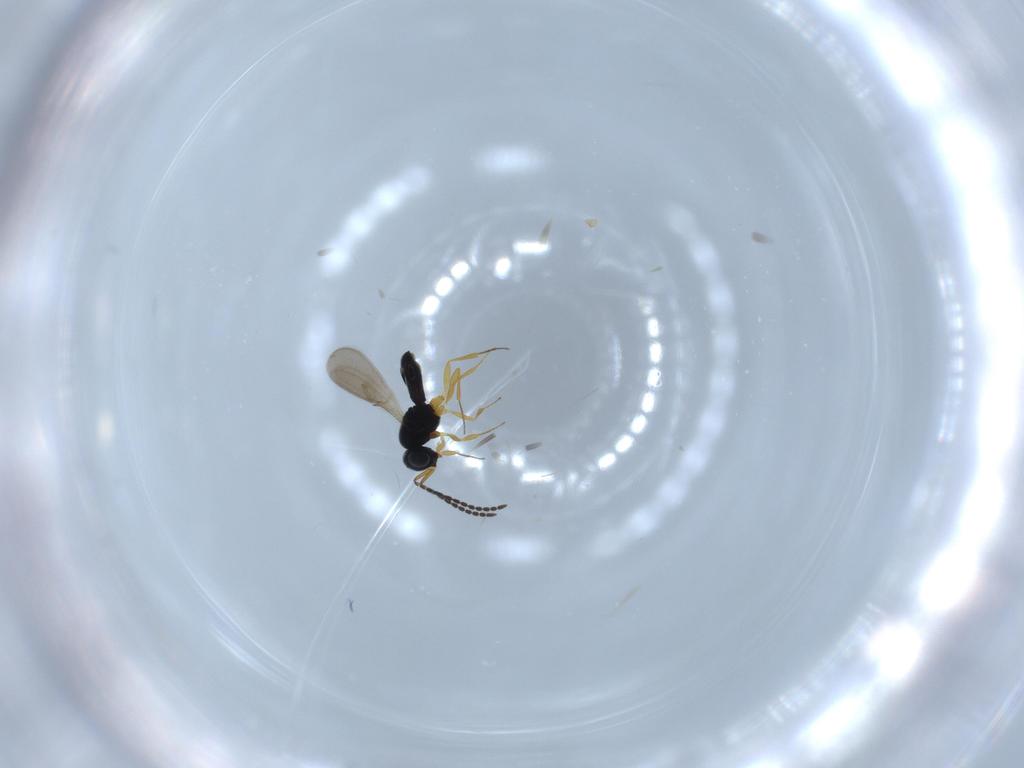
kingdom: Animalia
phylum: Arthropoda
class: Insecta
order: Hymenoptera
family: Scelionidae
